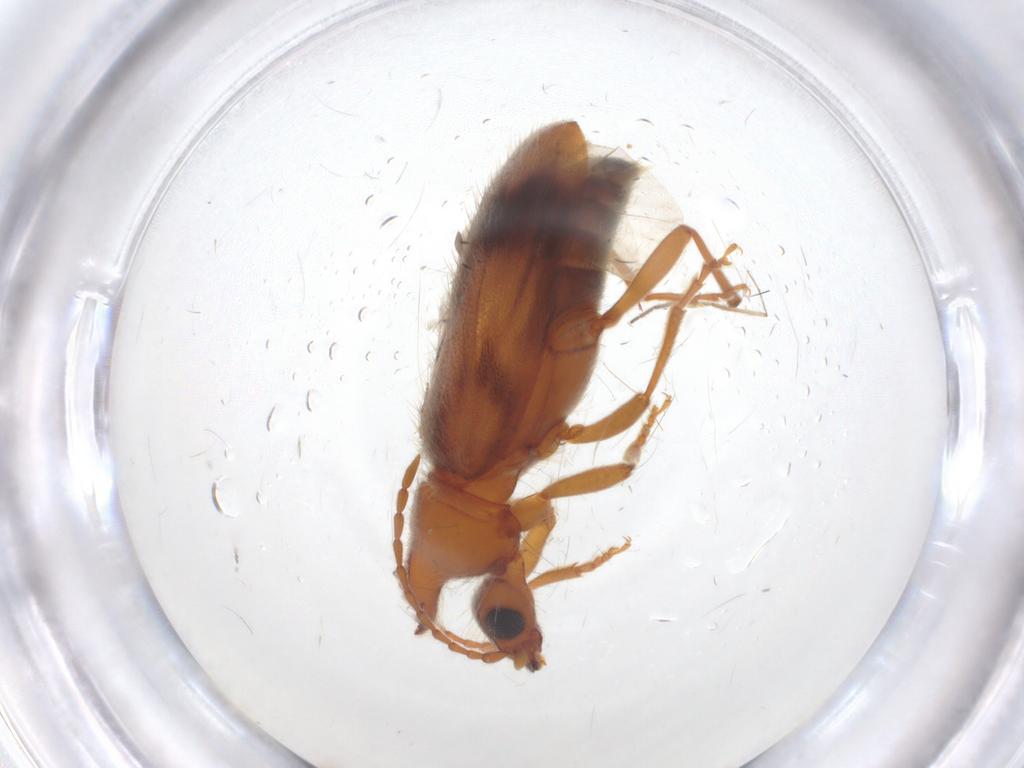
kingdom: Animalia
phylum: Arthropoda
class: Insecta
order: Coleoptera
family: Anthicidae
